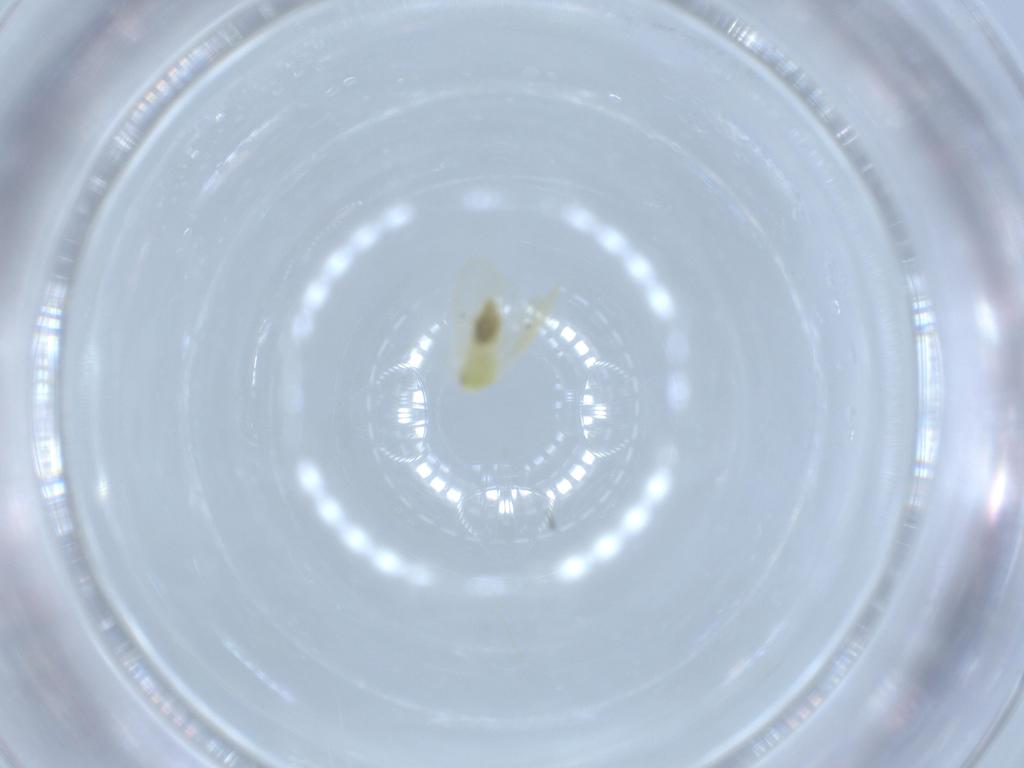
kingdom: Animalia
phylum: Arthropoda
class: Insecta
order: Hemiptera
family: Aleyrodidae
